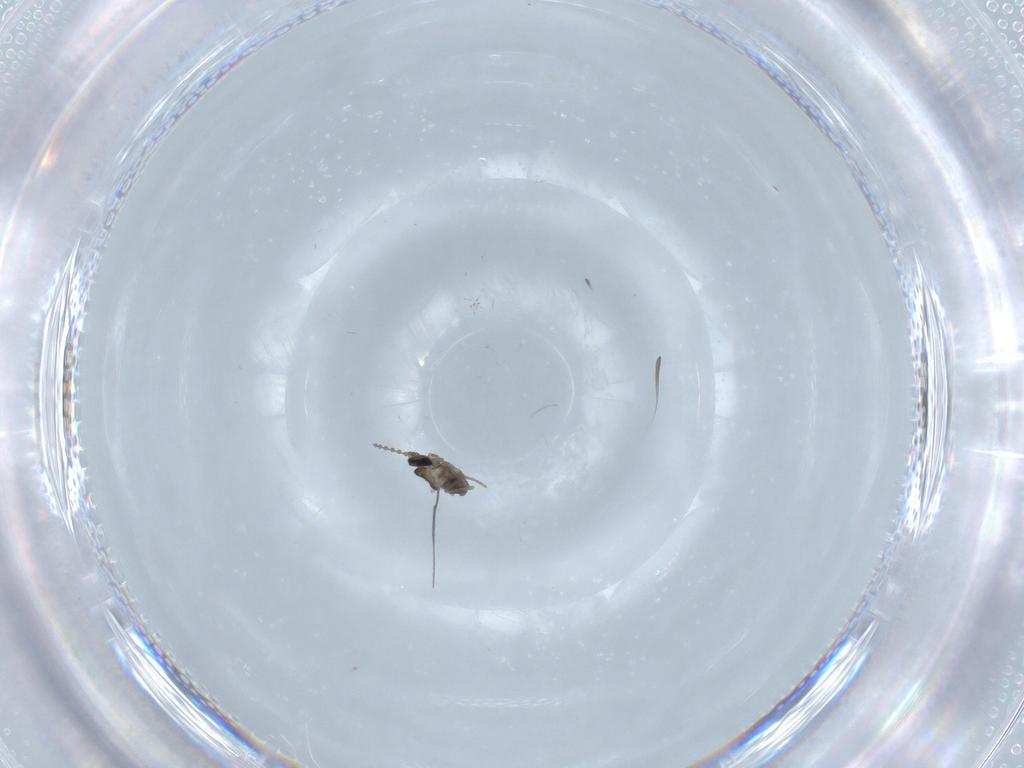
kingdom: Animalia
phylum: Arthropoda
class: Insecta
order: Diptera
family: Cecidomyiidae
